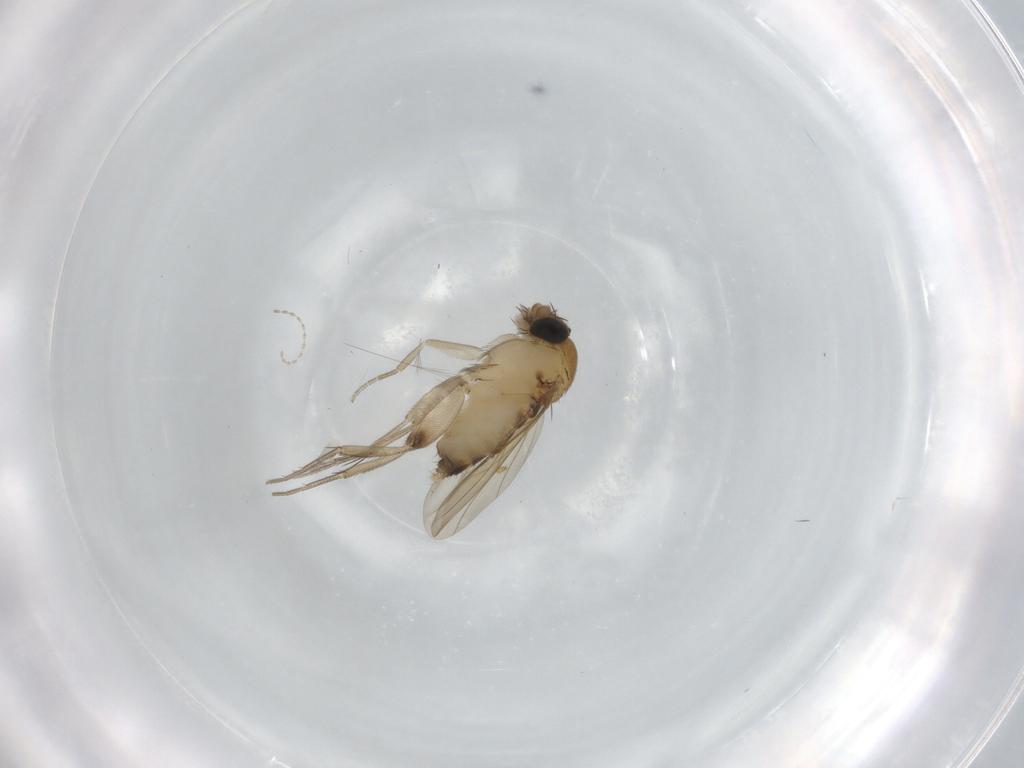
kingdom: Animalia
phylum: Arthropoda
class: Insecta
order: Diptera
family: Phoridae
